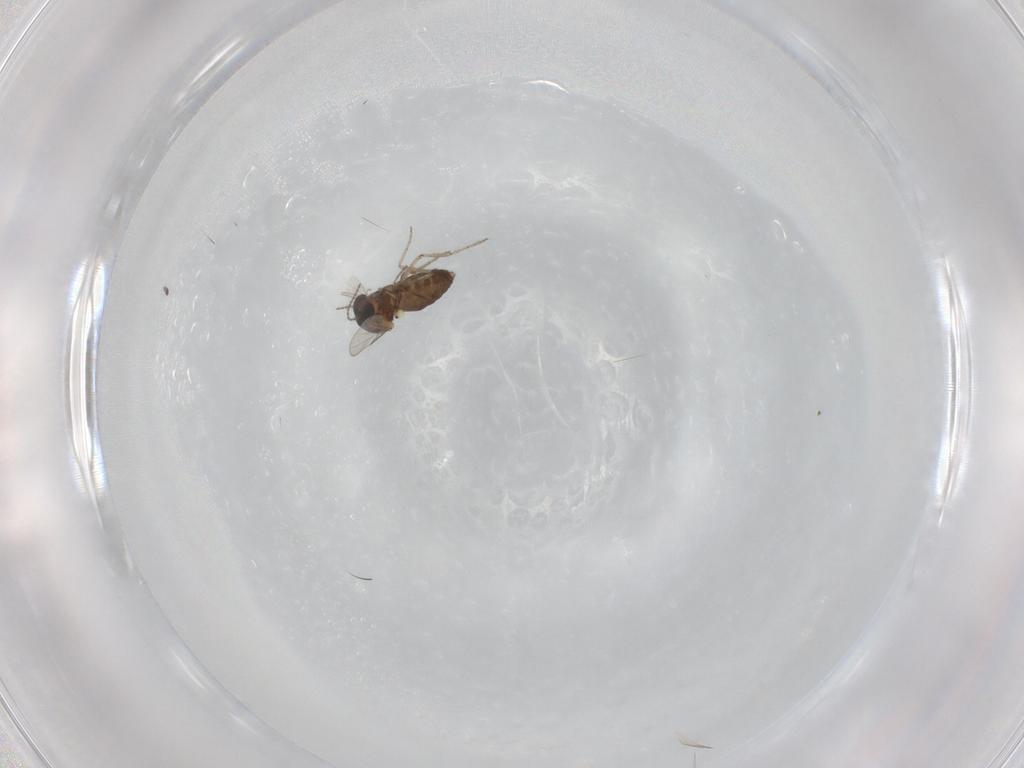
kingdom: Animalia
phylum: Arthropoda
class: Insecta
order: Diptera
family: Ceratopogonidae
